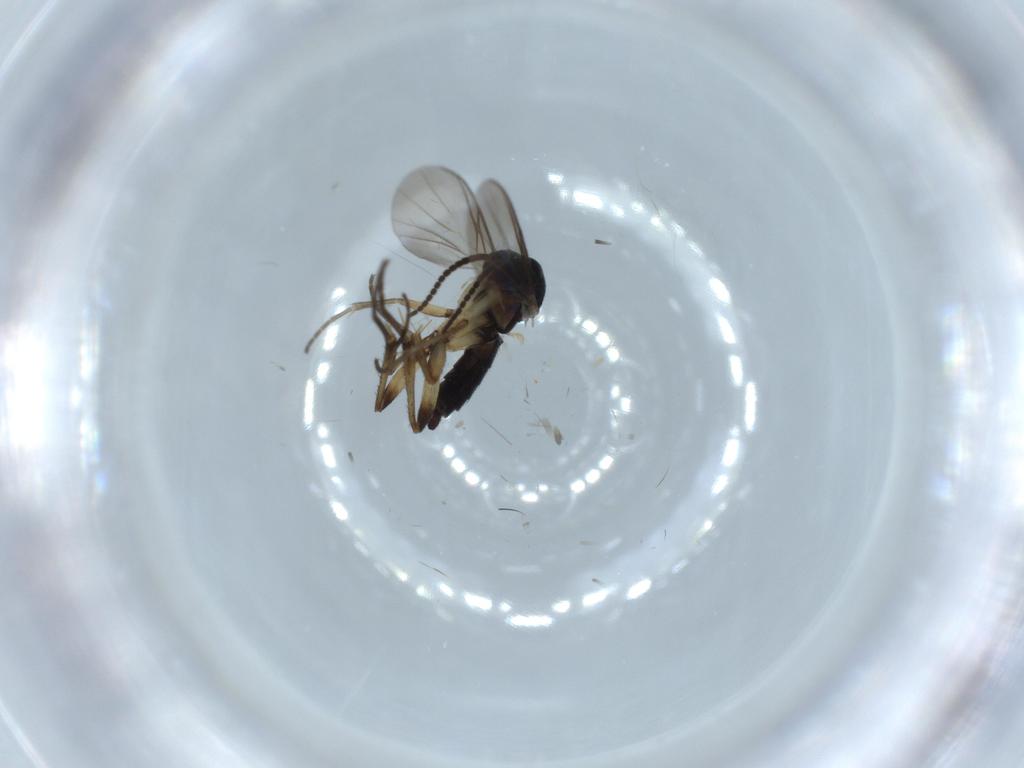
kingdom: Animalia
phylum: Arthropoda
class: Insecta
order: Diptera
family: Mycetophilidae
